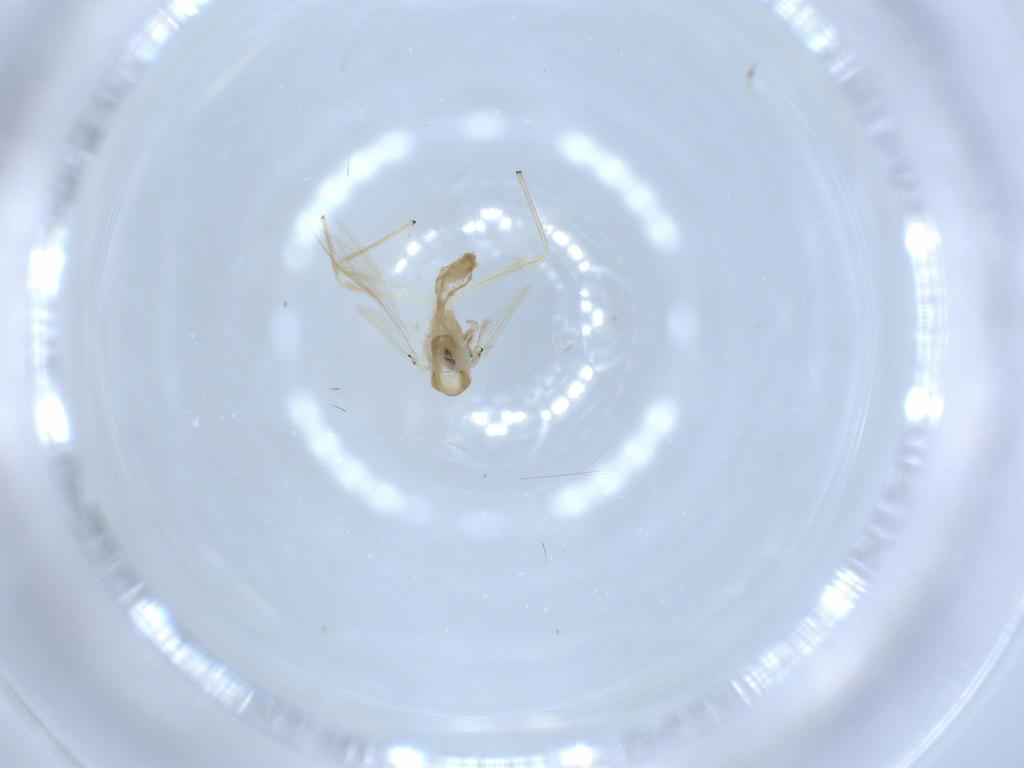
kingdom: Animalia
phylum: Arthropoda
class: Insecta
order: Diptera
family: Chironomidae
